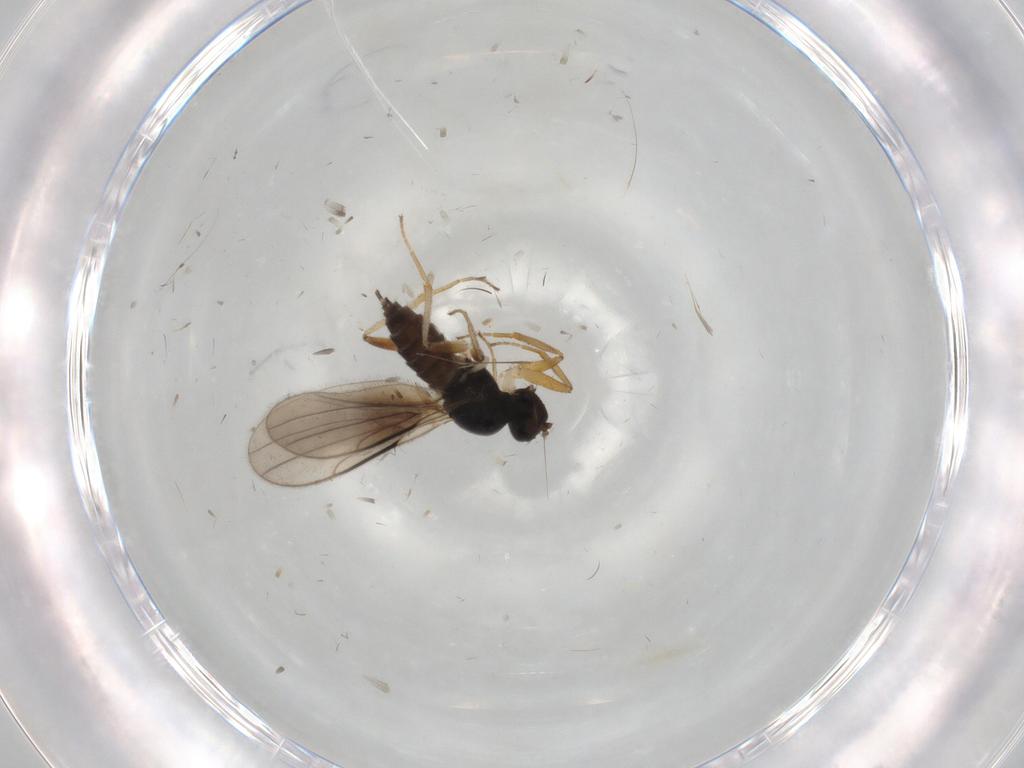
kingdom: Animalia
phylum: Arthropoda
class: Insecta
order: Diptera
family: Hybotidae
